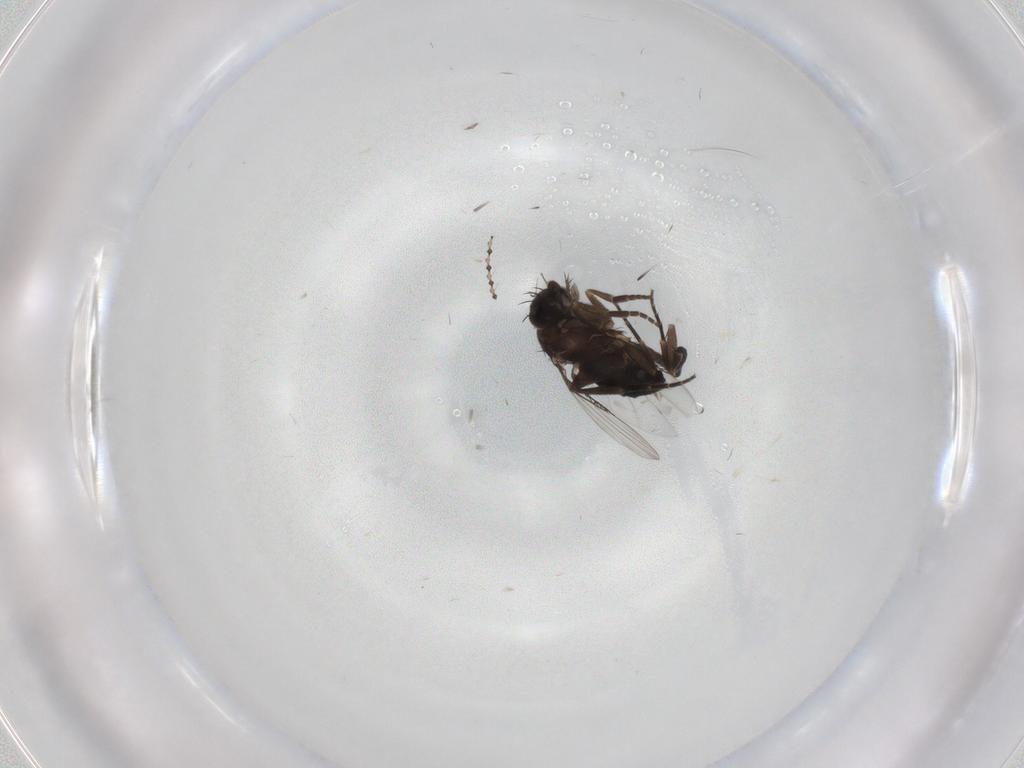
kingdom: Animalia
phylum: Arthropoda
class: Insecta
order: Diptera
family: Phoridae
